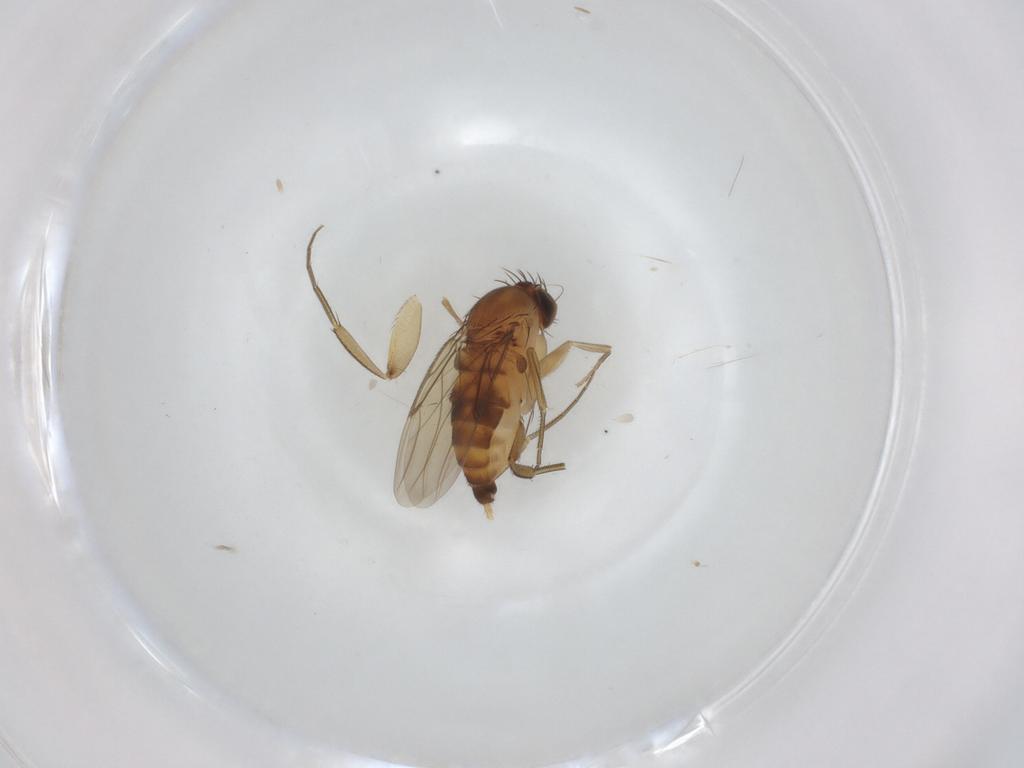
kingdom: Animalia
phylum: Arthropoda
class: Insecta
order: Diptera
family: Phoridae
